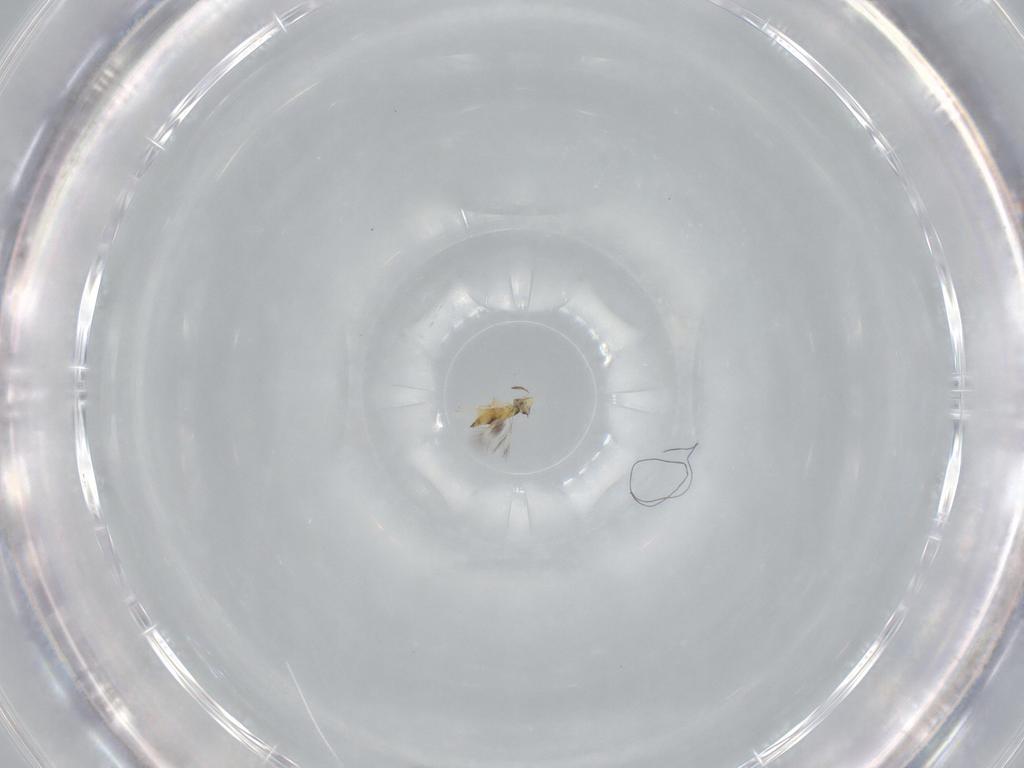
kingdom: Animalia
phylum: Arthropoda
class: Insecta
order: Hymenoptera
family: Signiphoridae
